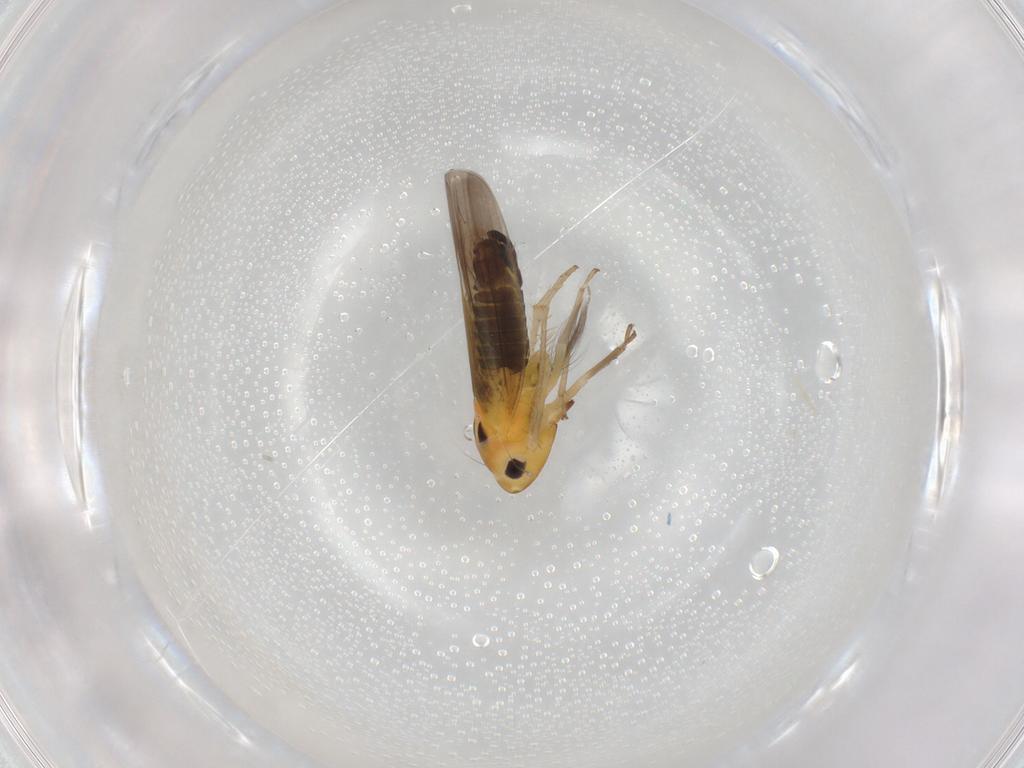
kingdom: Animalia
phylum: Arthropoda
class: Insecta
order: Hemiptera
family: Cicadellidae
